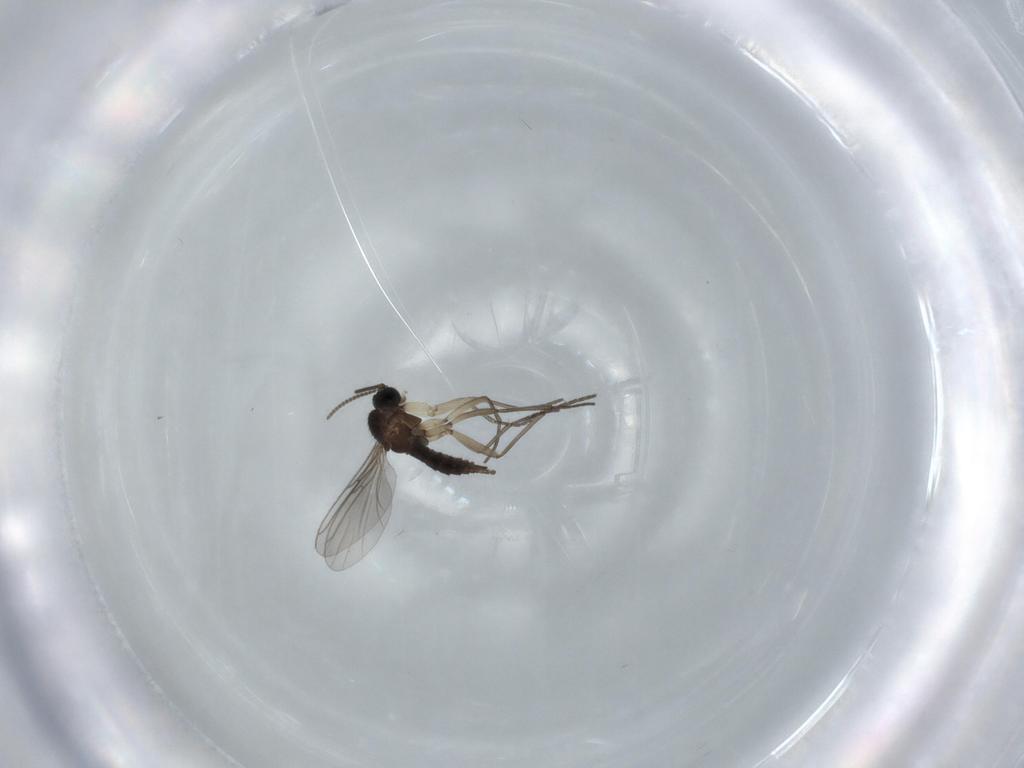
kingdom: Animalia
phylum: Arthropoda
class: Insecta
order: Diptera
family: Sciaridae
